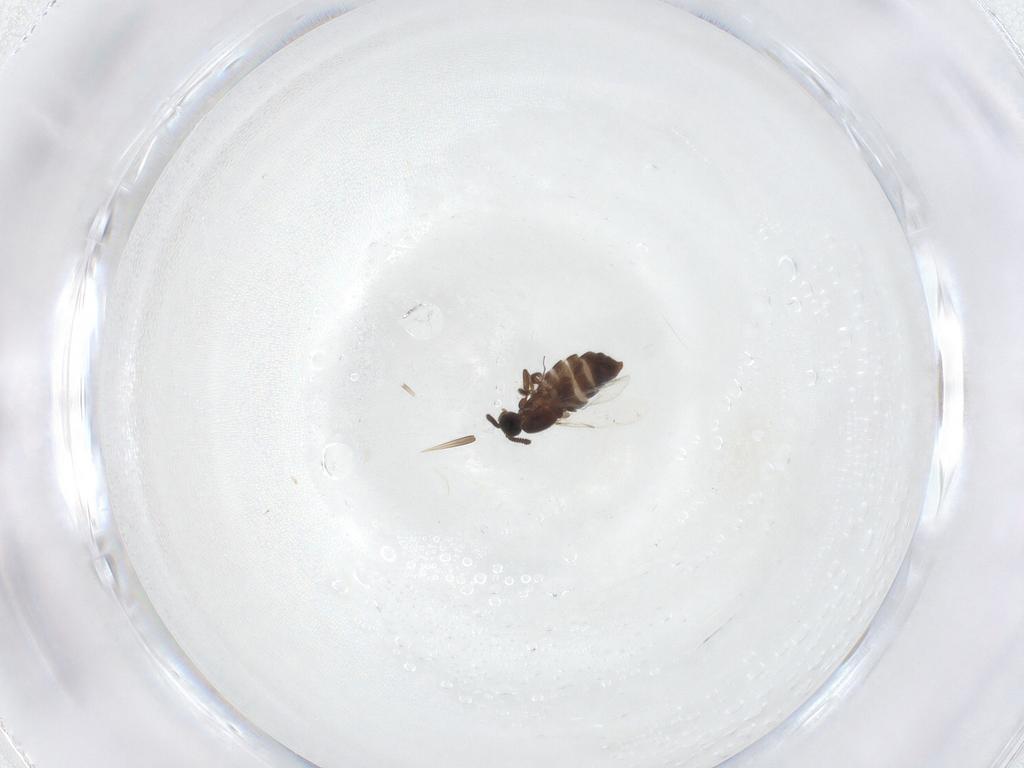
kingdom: Animalia
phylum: Arthropoda
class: Insecta
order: Diptera
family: Scatopsidae
